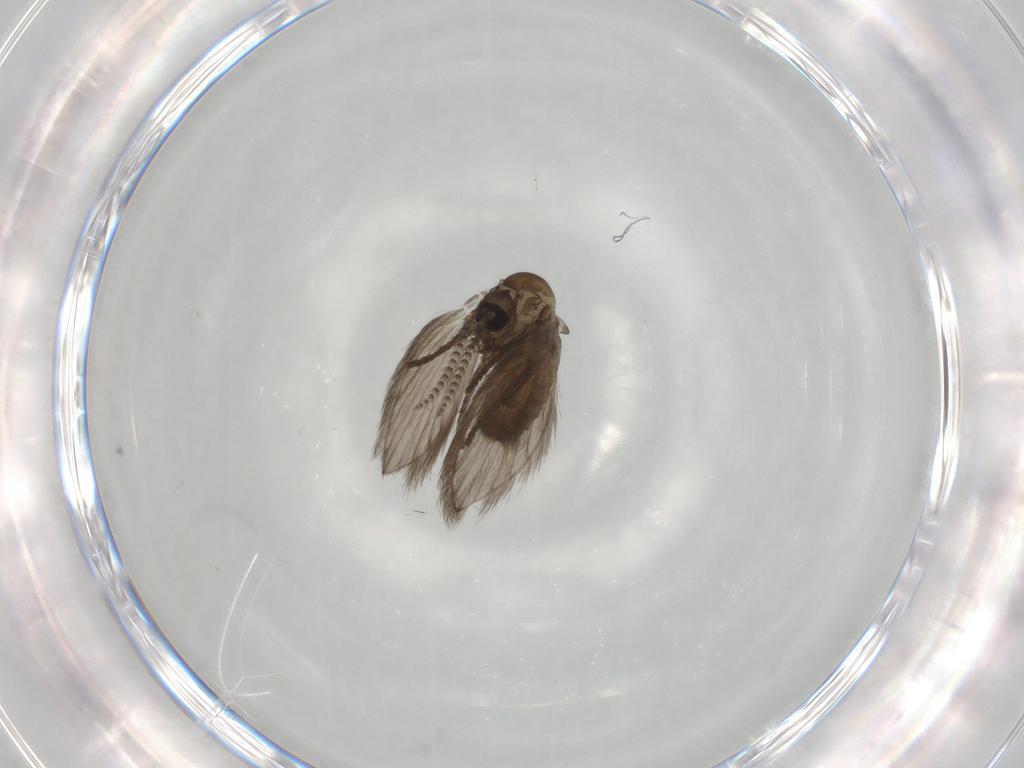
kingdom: Animalia
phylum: Arthropoda
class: Insecta
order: Diptera
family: Psychodidae
